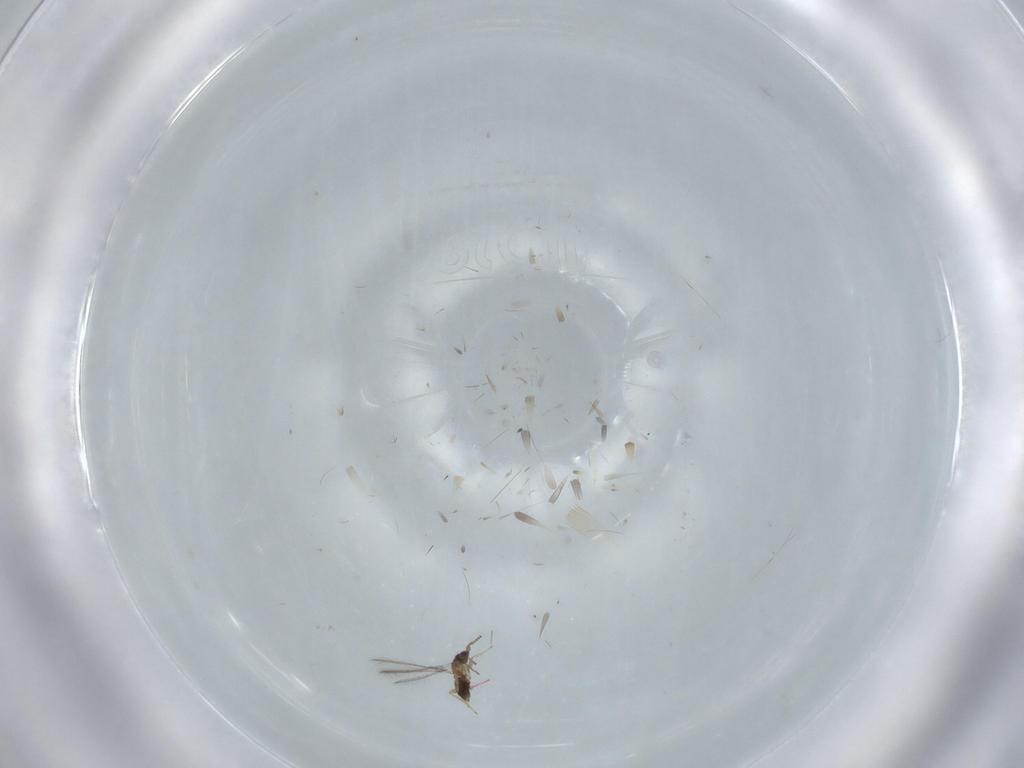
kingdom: Animalia
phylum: Arthropoda
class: Insecta
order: Hymenoptera
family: Mymaridae
